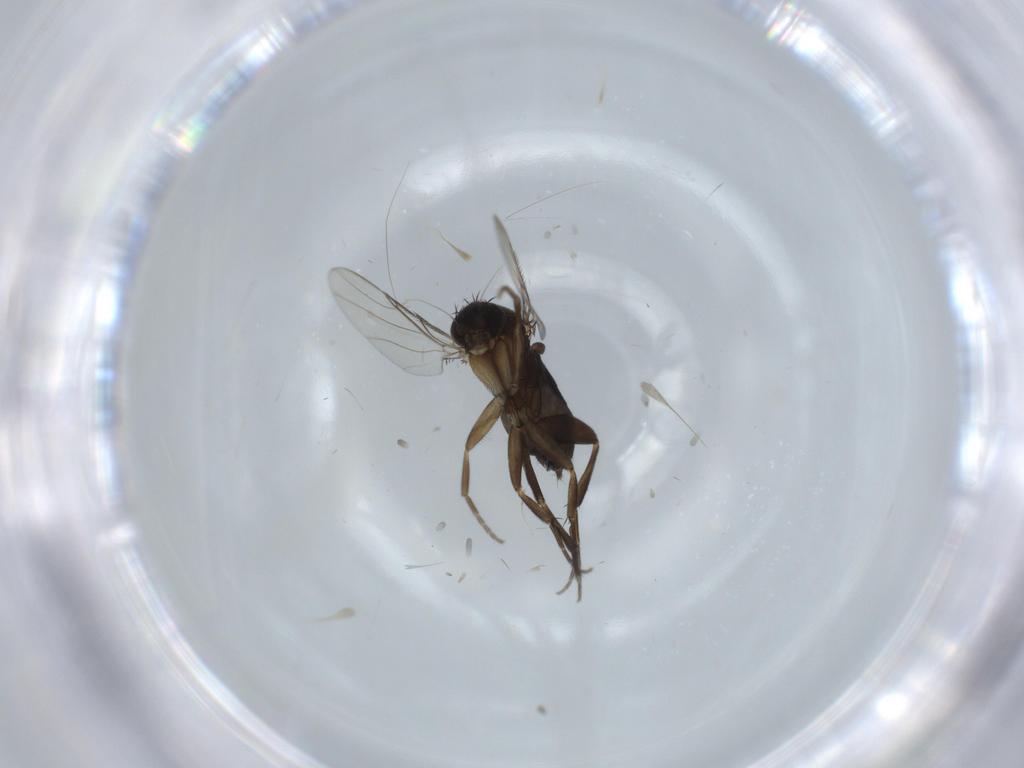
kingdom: Animalia
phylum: Arthropoda
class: Insecta
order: Diptera
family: Phoridae
